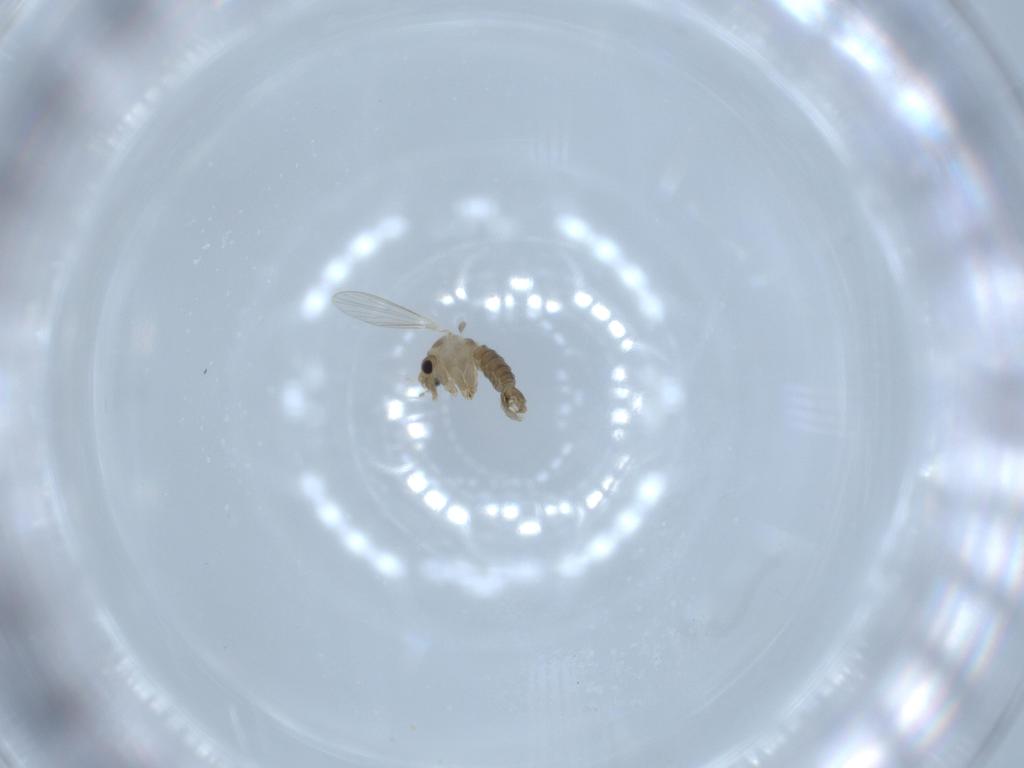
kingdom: Animalia
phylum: Arthropoda
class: Insecta
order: Diptera
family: Psychodidae
